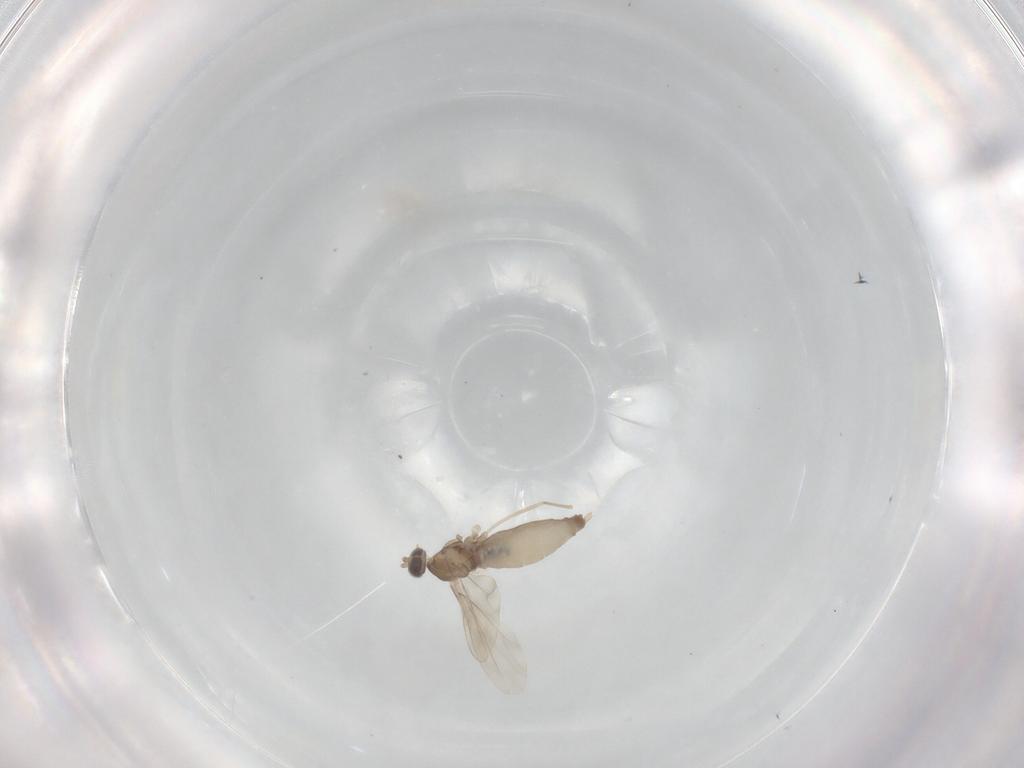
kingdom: Animalia
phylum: Arthropoda
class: Insecta
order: Diptera
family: Cecidomyiidae
